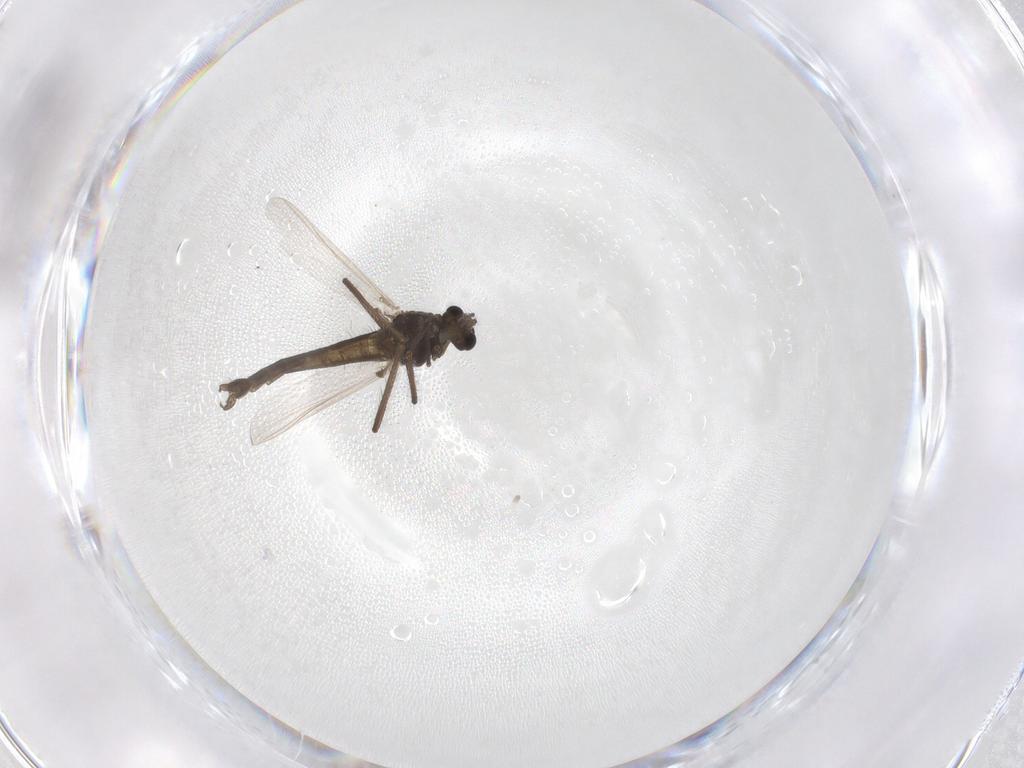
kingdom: Animalia
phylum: Arthropoda
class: Insecta
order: Diptera
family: Chironomidae
